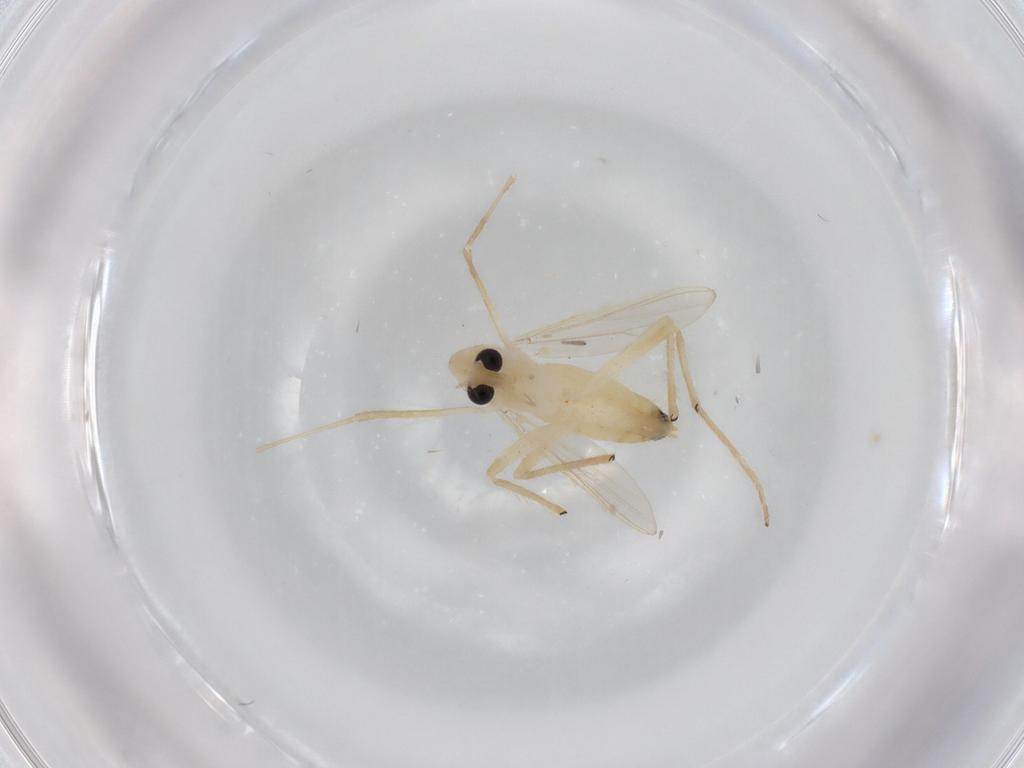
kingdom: Animalia
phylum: Arthropoda
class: Insecta
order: Diptera
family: Chironomidae
